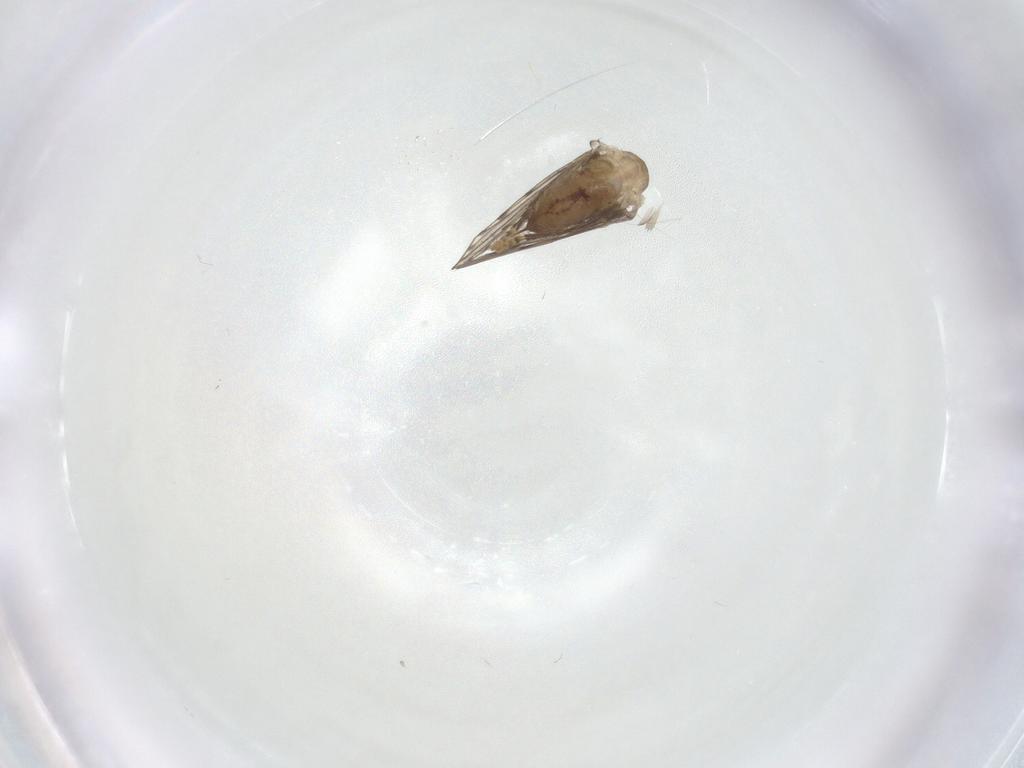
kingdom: Animalia
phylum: Arthropoda
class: Insecta
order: Diptera
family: Psychodidae
